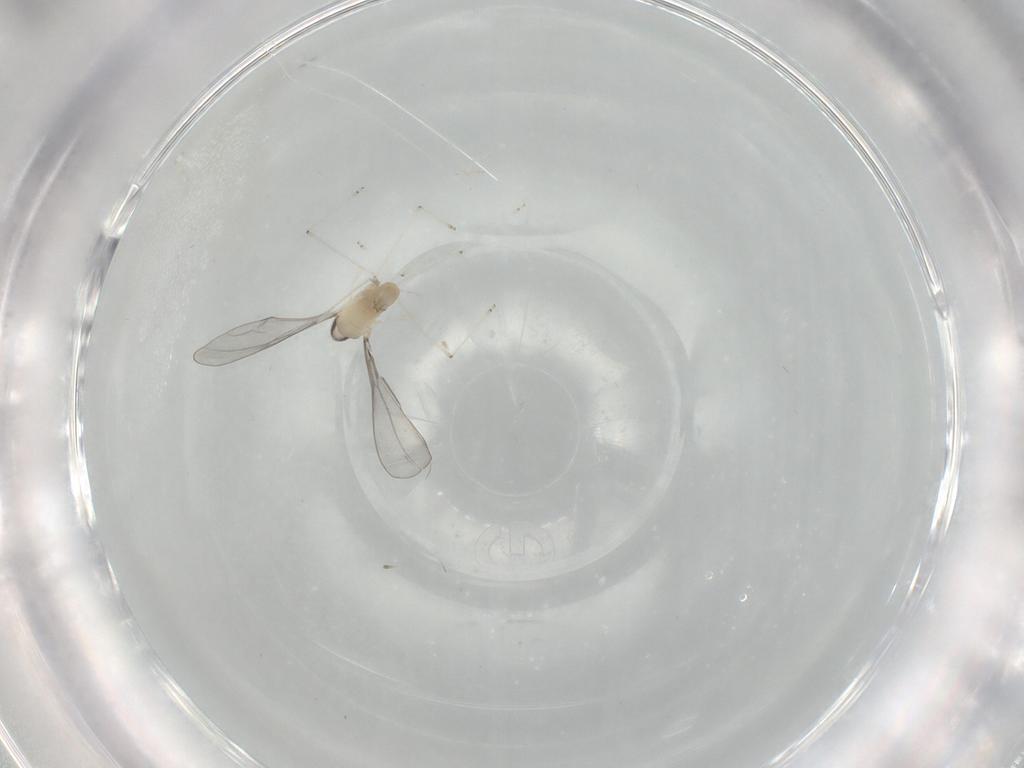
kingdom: Animalia
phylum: Arthropoda
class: Insecta
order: Diptera
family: Cecidomyiidae
